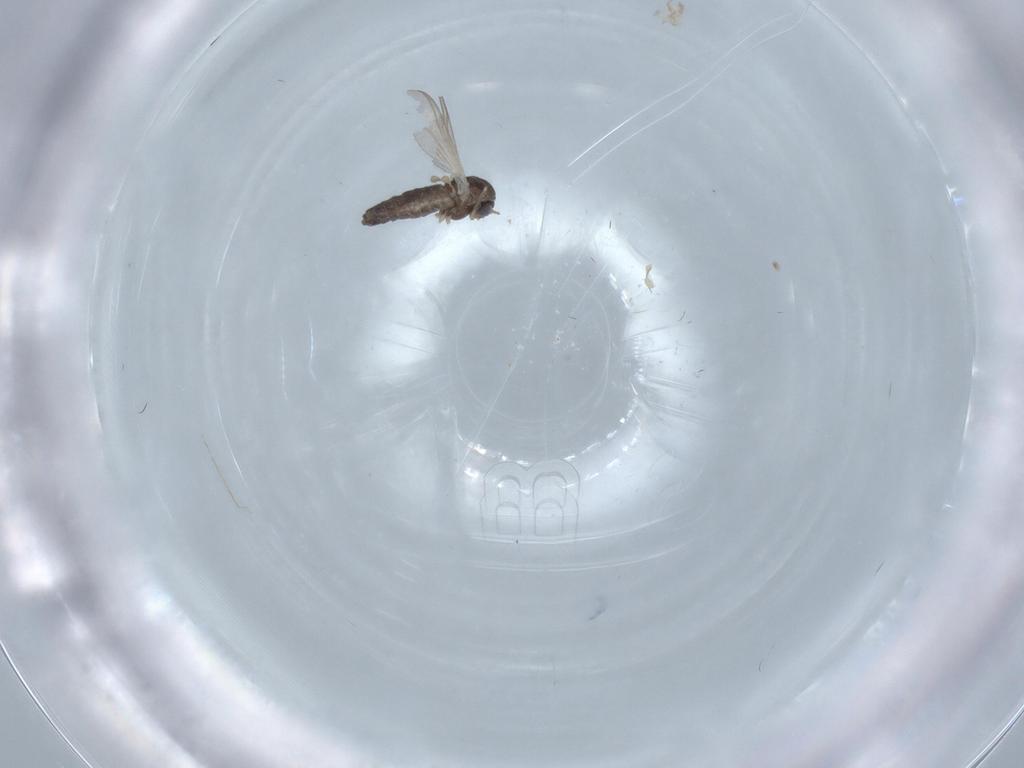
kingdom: Animalia
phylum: Arthropoda
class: Insecta
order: Diptera
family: Chironomidae
